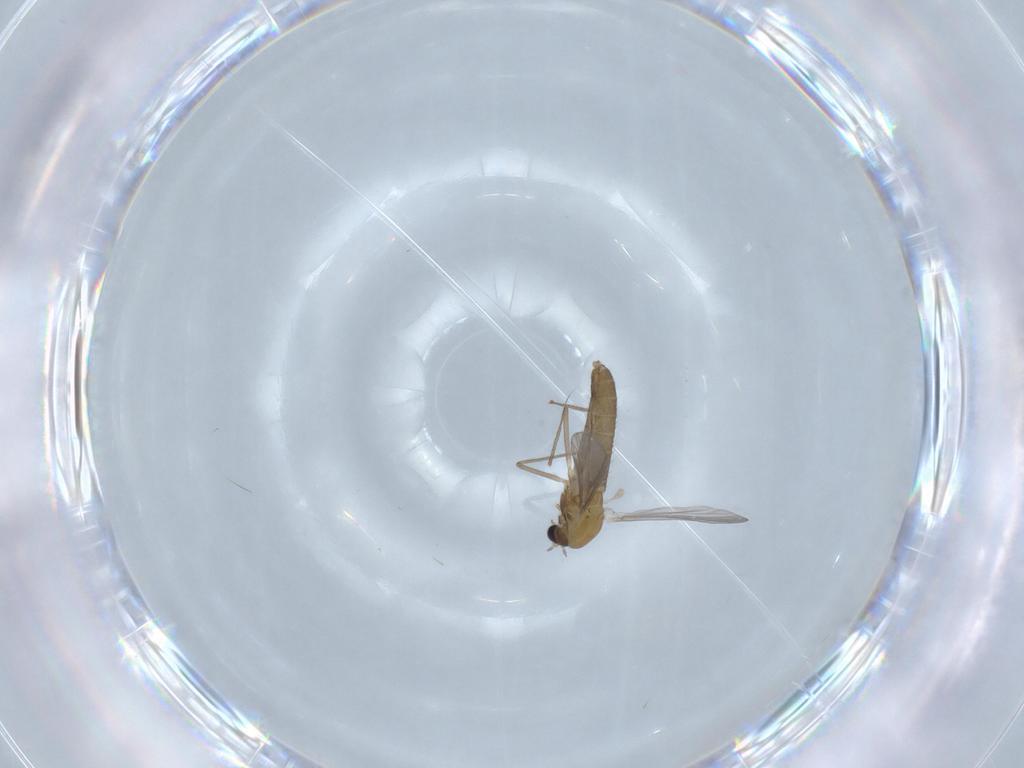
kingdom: Animalia
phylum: Arthropoda
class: Insecta
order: Diptera
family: Chironomidae
